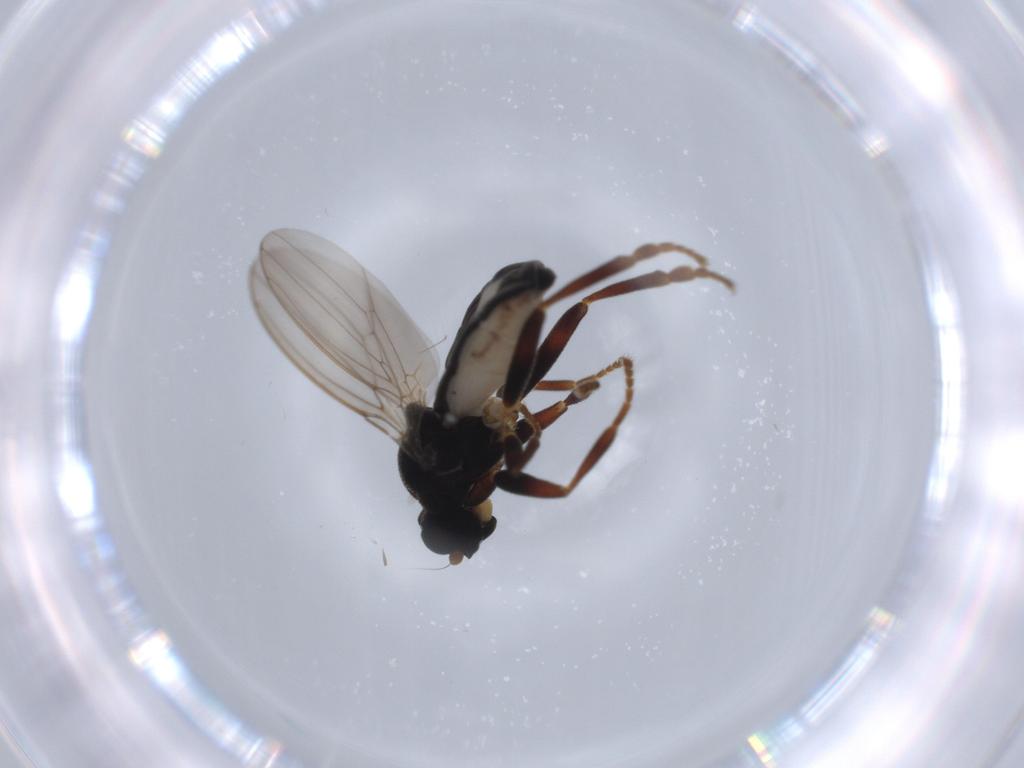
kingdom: Animalia
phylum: Arthropoda
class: Insecta
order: Diptera
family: Sphaeroceridae
